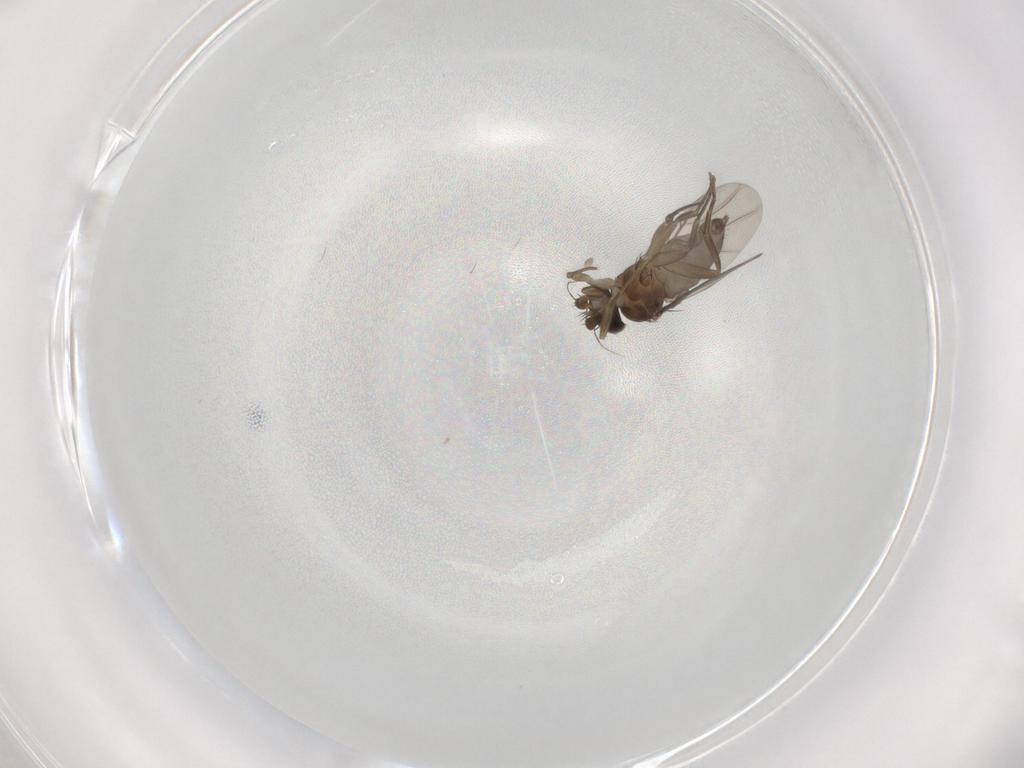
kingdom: Animalia
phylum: Arthropoda
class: Insecta
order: Diptera
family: Phoridae
